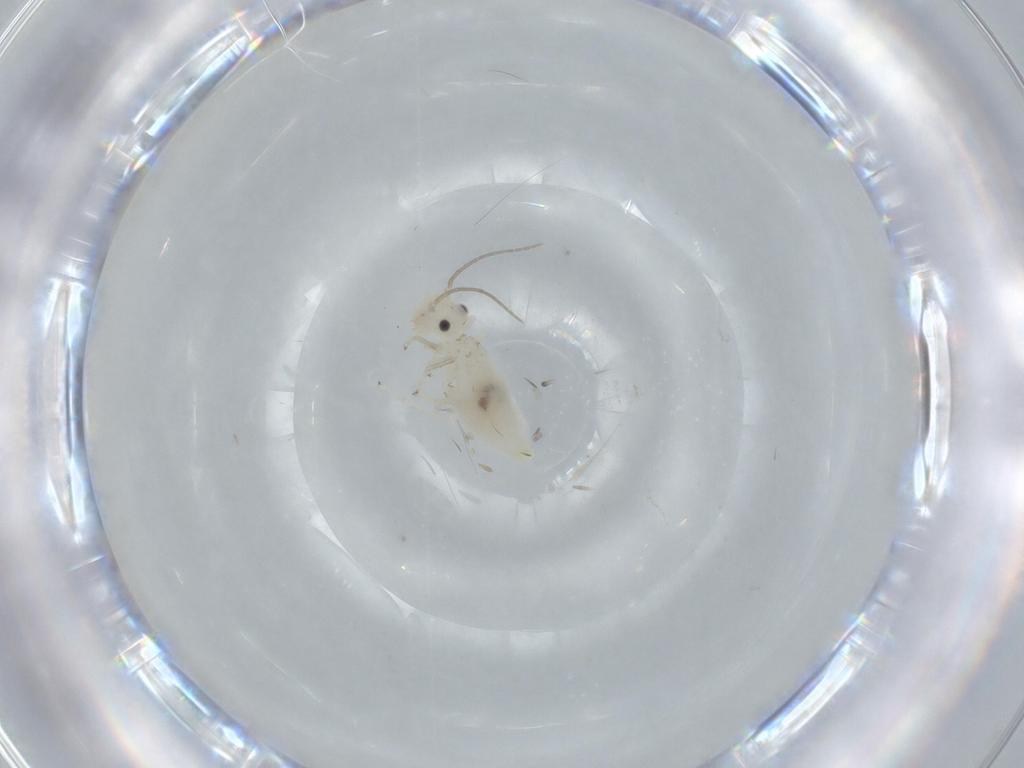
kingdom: Animalia
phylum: Arthropoda
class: Insecta
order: Psocodea
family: Caeciliusidae
